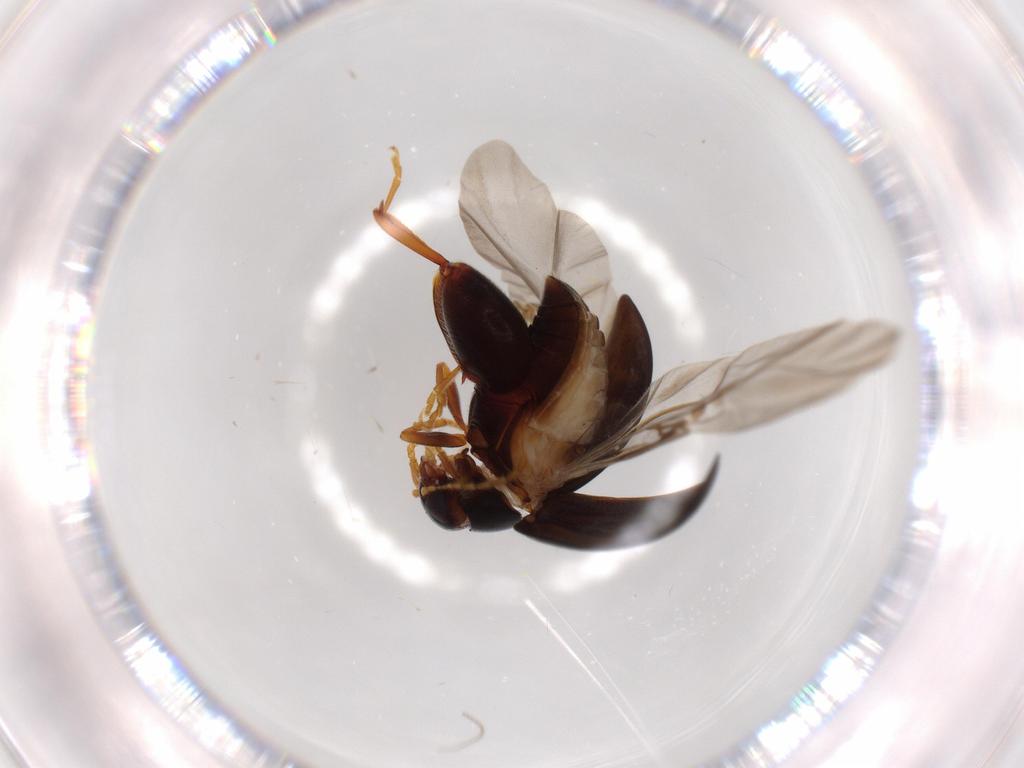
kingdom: Animalia
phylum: Arthropoda
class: Insecta
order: Coleoptera
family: Chrysomelidae
